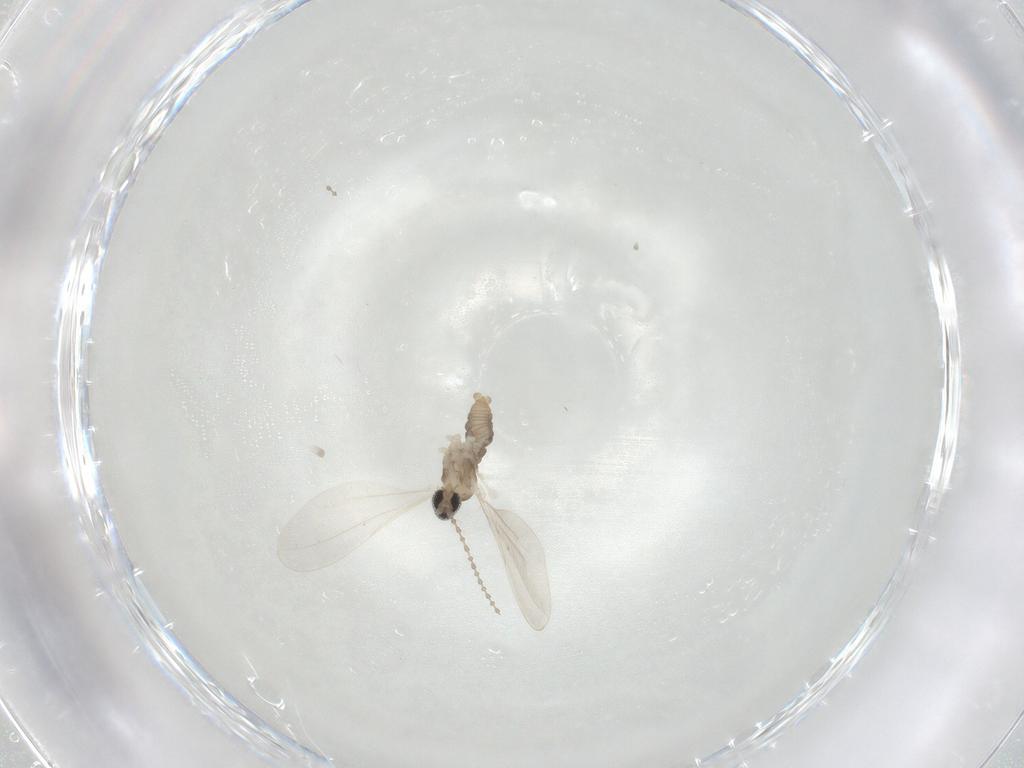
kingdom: Animalia
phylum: Arthropoda
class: Insecta
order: Diptera
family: Cecidomyiidae
